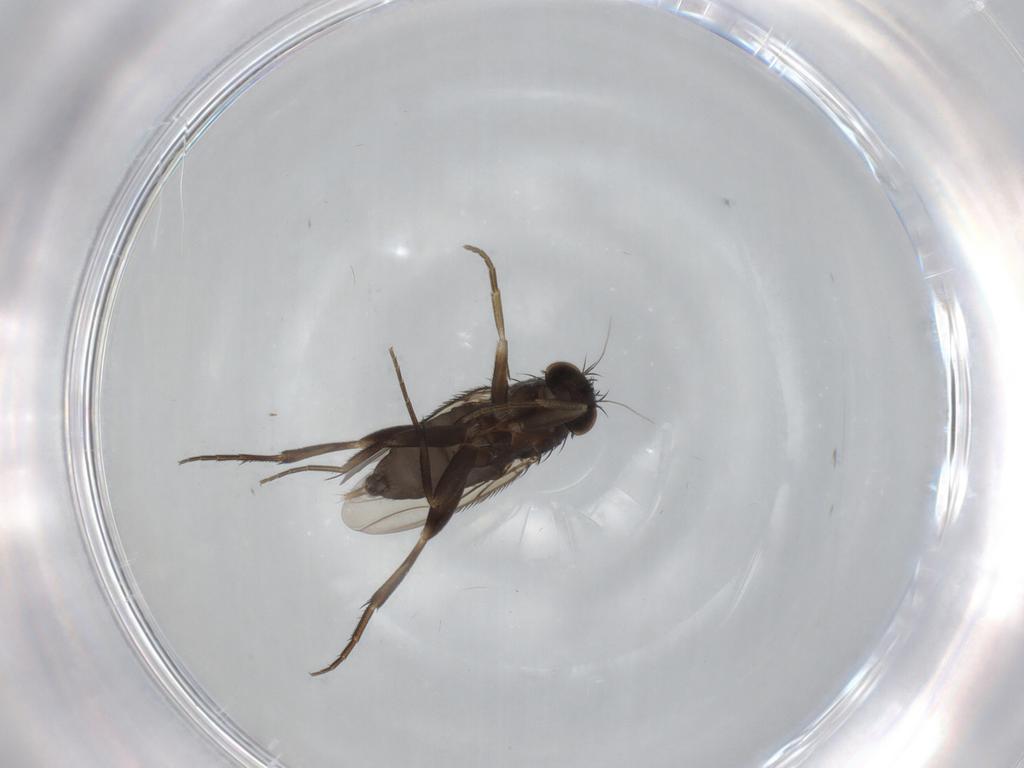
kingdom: Animalia
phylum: Arthropoda
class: Insecta
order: Diptera
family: Phoridae
